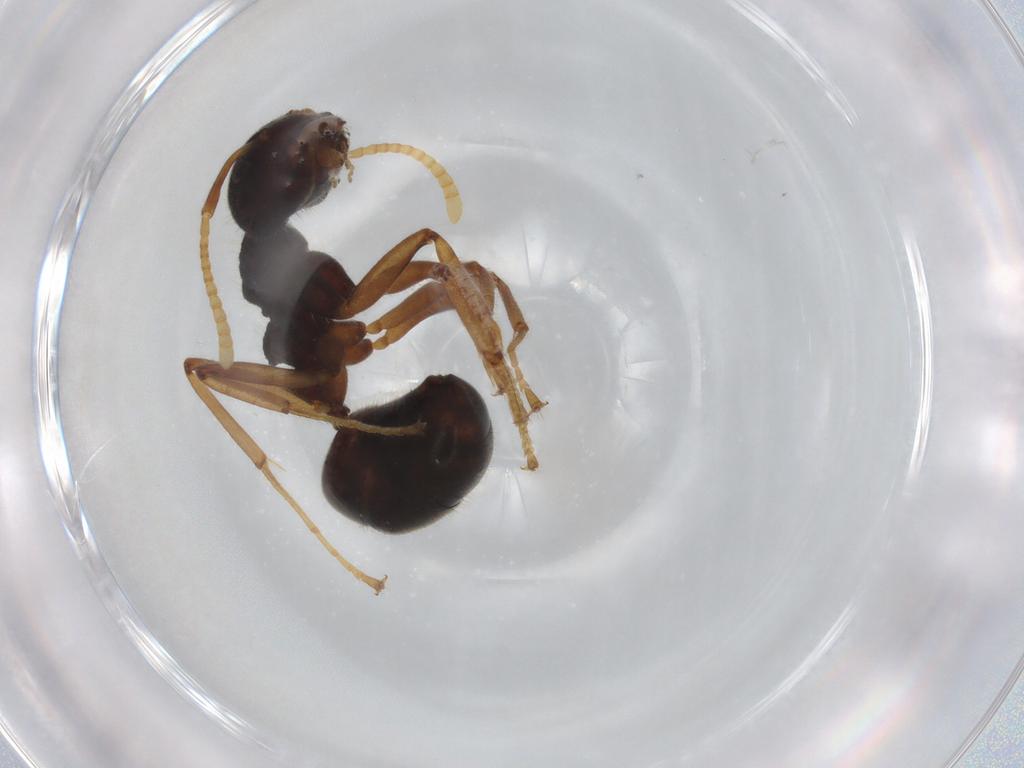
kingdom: Animalia
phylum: Arthropoda
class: Insecta
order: Hymenoptera
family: Formicidae
